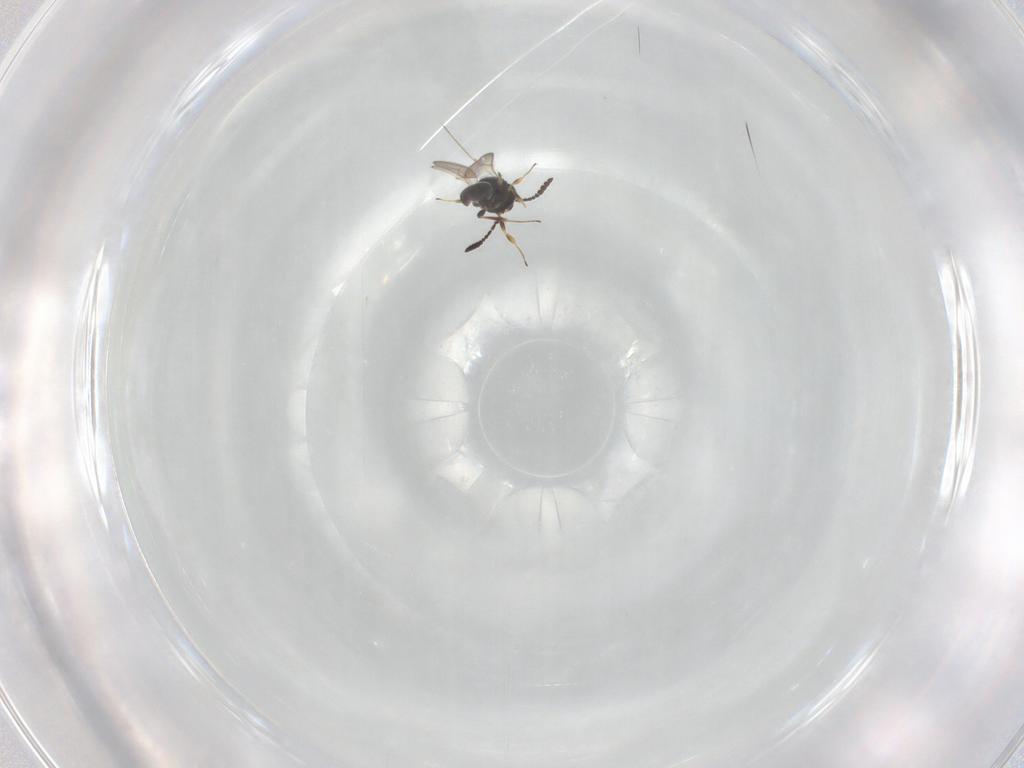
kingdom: Animalia
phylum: Arthropoda
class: Insecta
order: Hymenoptera
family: Scelionidae
